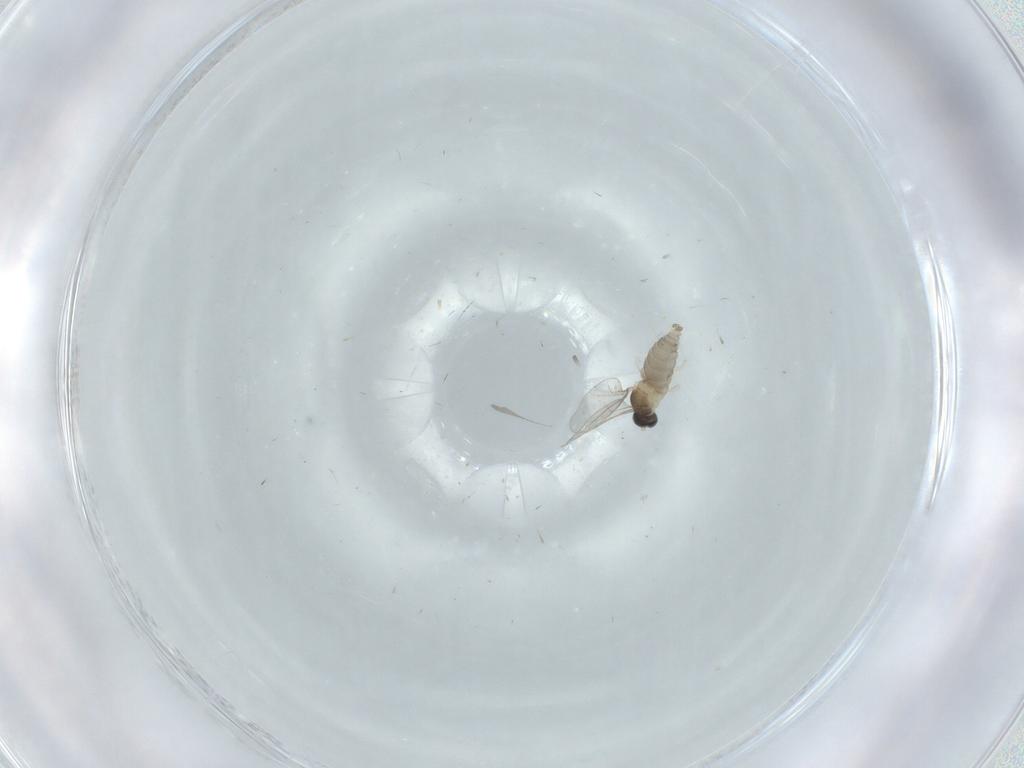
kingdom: Animalia
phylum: Arthropoda
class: Insecta
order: Diptera
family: Cecidomyiidae
